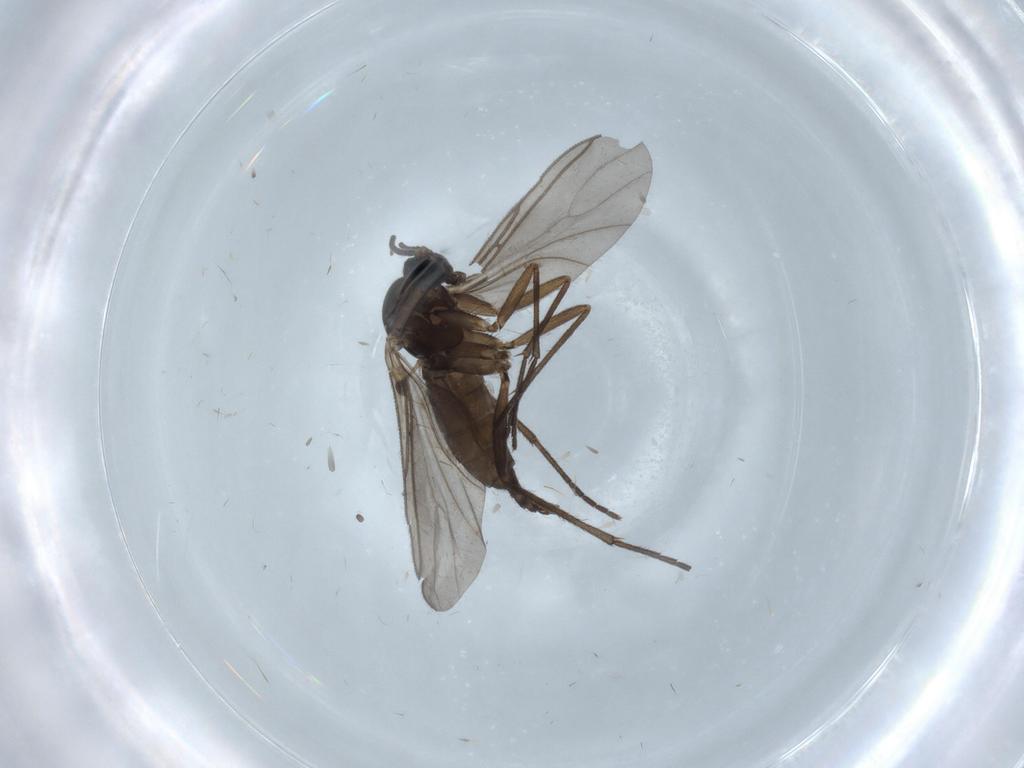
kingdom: Animalia
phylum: Arthropoda
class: Insecta
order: Diptera
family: Sciaridae
